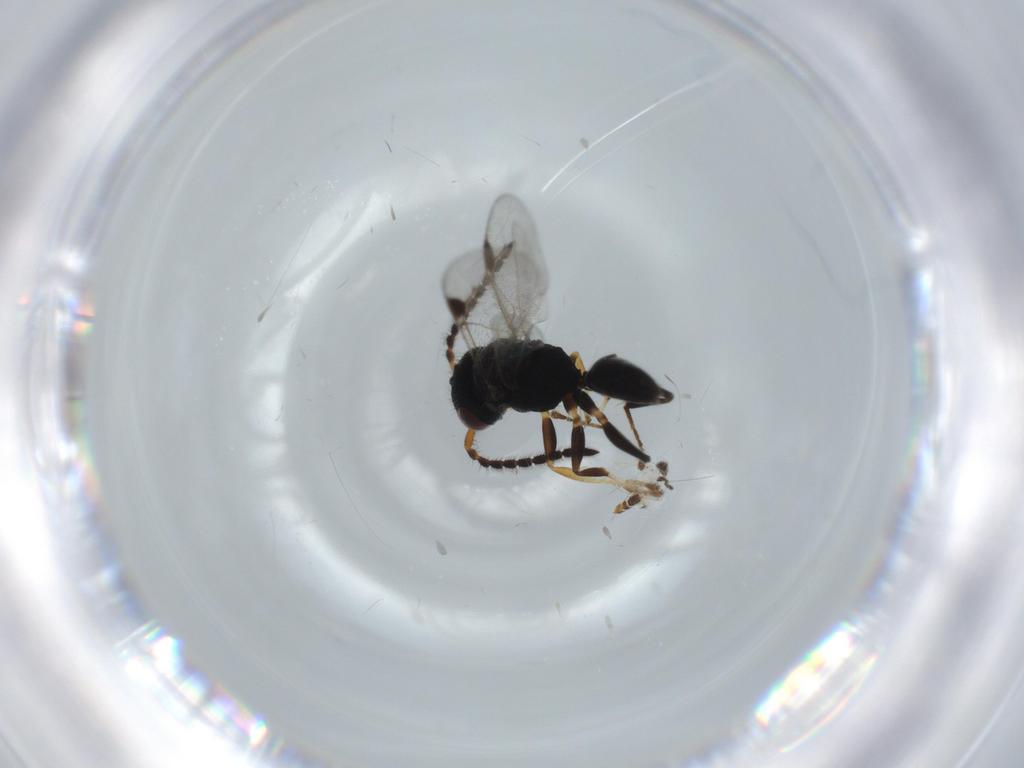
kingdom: Animalia
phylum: Arthropoda
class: Insecta
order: Hymenoptera
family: Dryinidae
